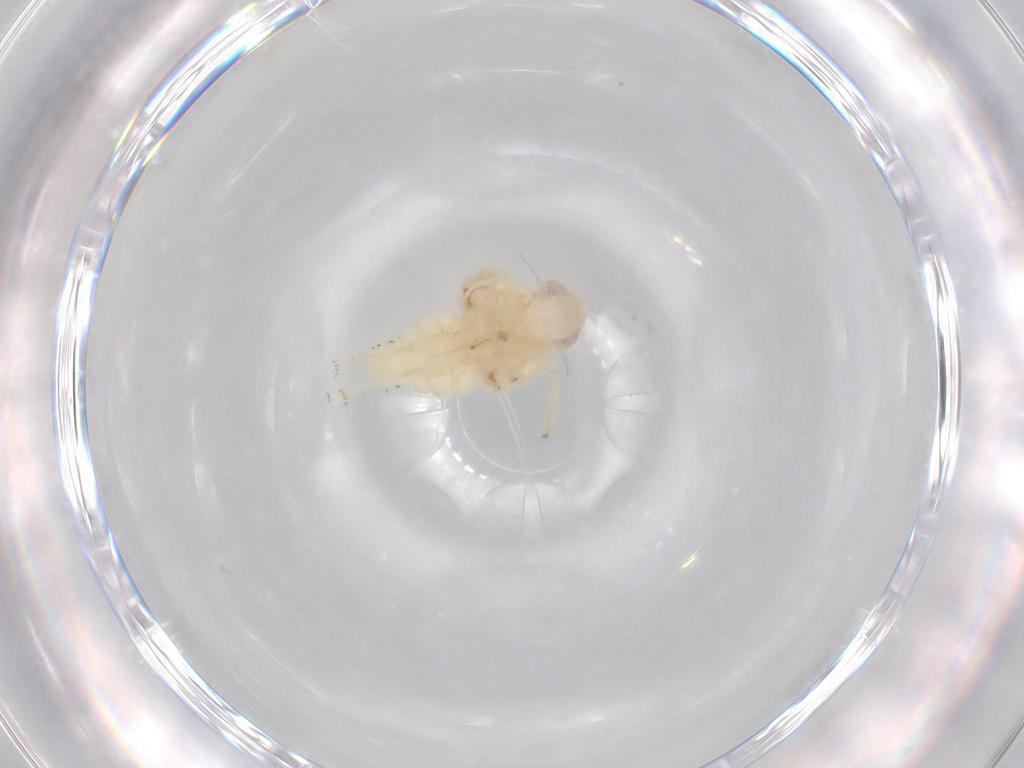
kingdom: Animalia
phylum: Arthropoda
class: Insecta
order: Hemiptera
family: Nogodinidae
